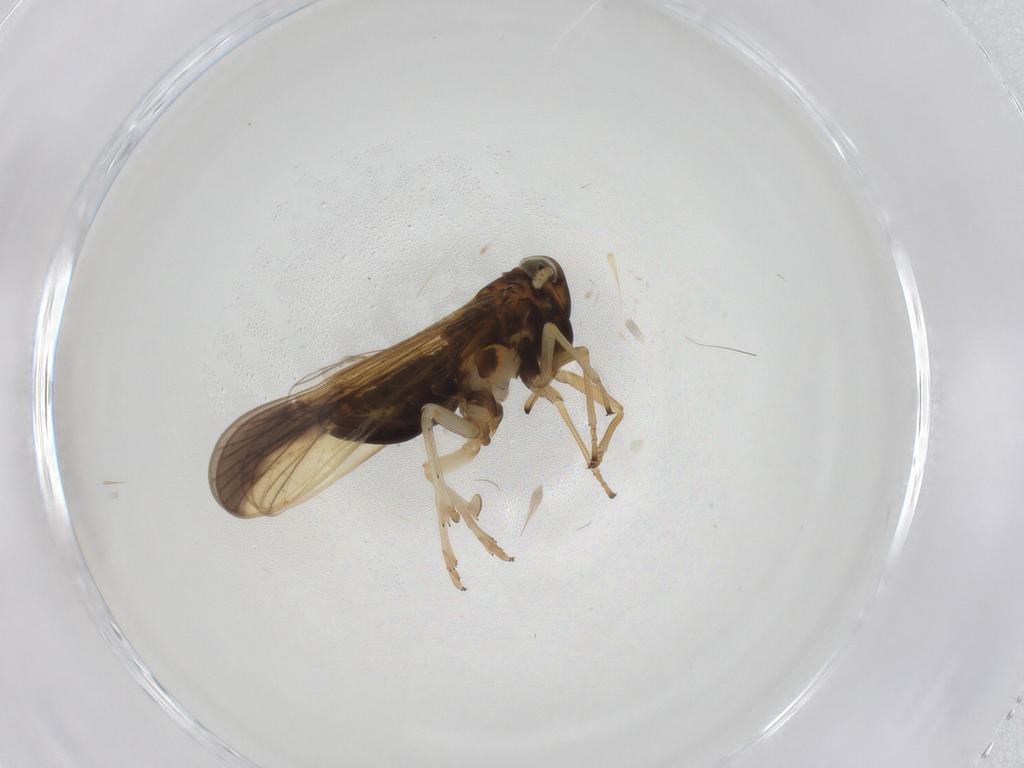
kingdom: Animalia
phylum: Arthropoda
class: Insecta
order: Hemiptera
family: Delphacidae
